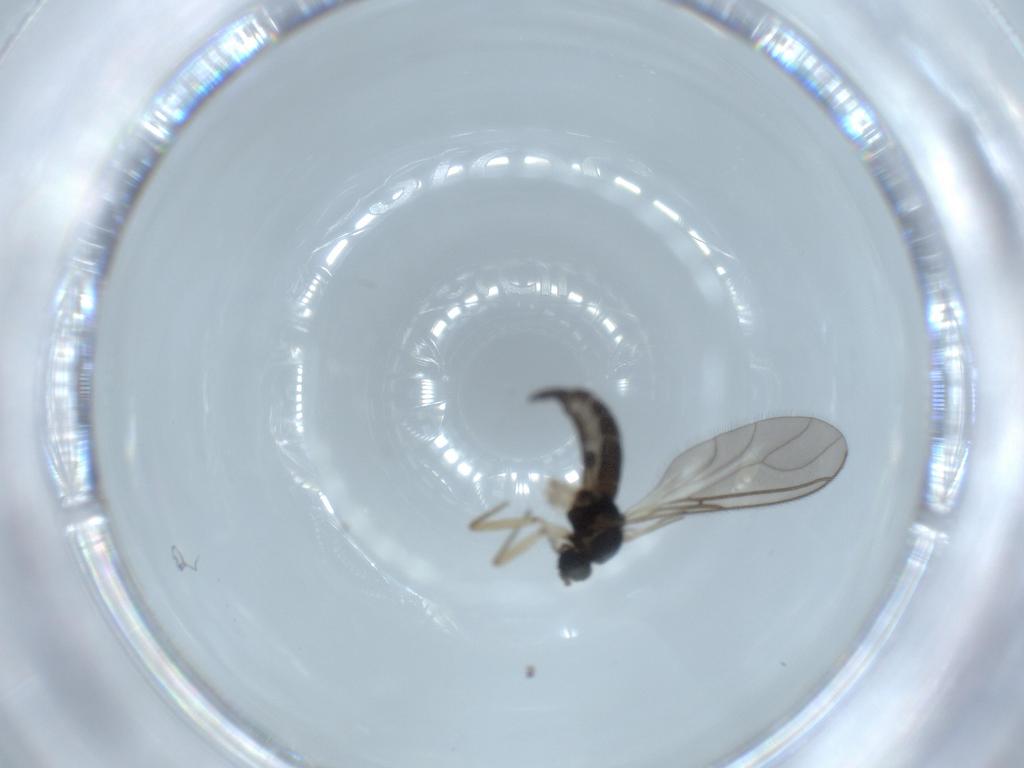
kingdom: Animalia
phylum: Arthropoda
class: Insecta
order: Diptera
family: Sciaridae
